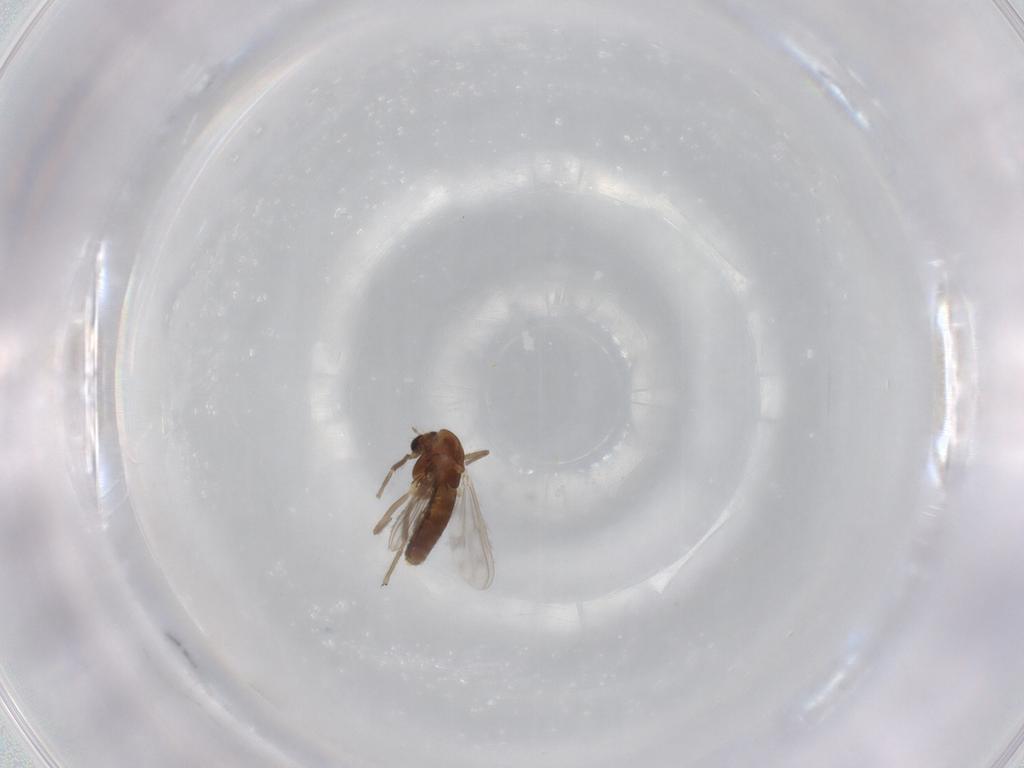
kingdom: Animalia
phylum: Arthropoda
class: Insecta
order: Diptera
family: Chironomidae
